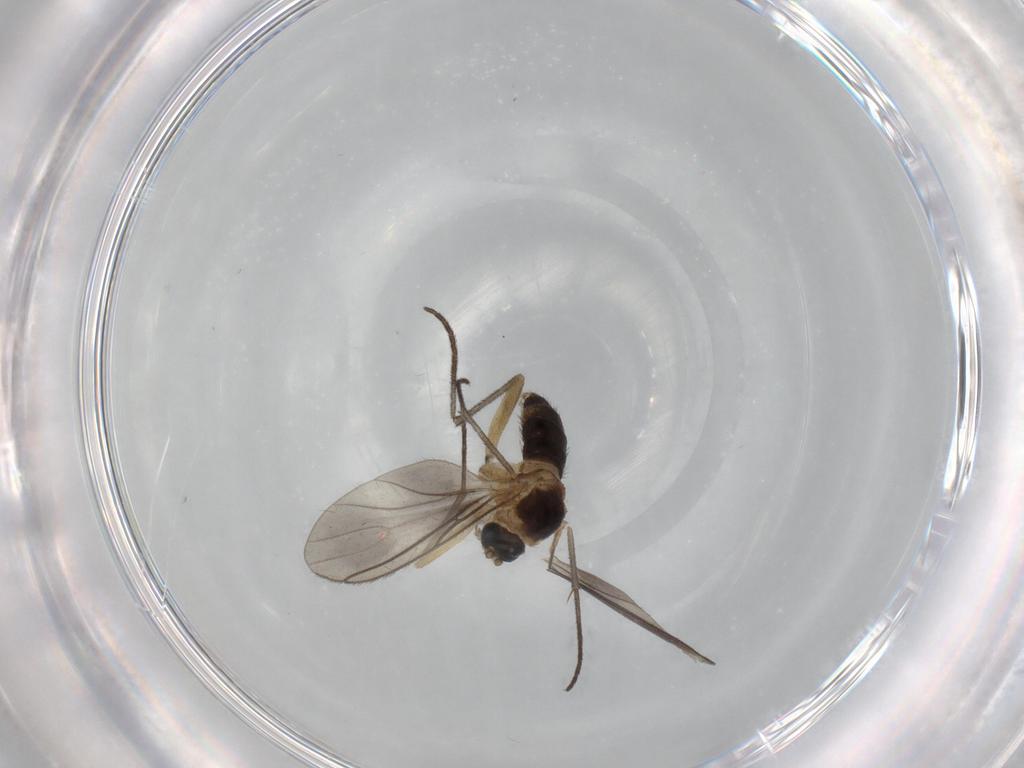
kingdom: Animalia
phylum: Arthropoda
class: Insecta
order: Diptera
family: Sciaridae
